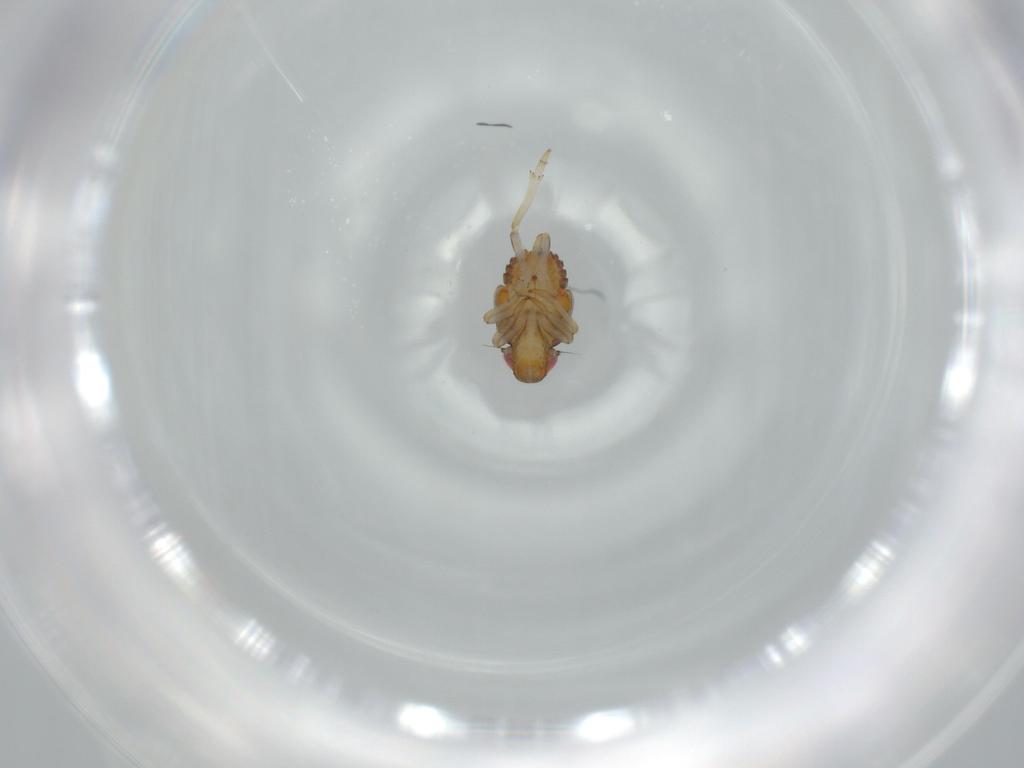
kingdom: Animalia
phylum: Arthropoda
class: Insecta
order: Hemiptera
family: Issidae
